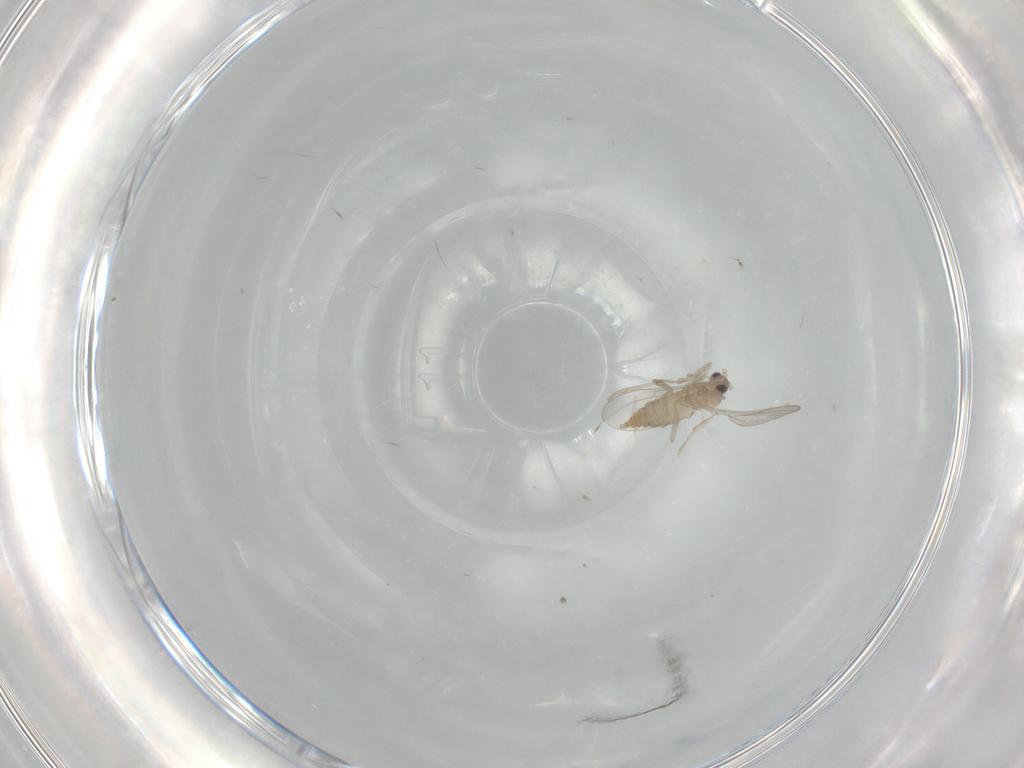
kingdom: Animalia
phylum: Arthropoda
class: Insecta
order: Diptera
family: Cecidomyiidae
